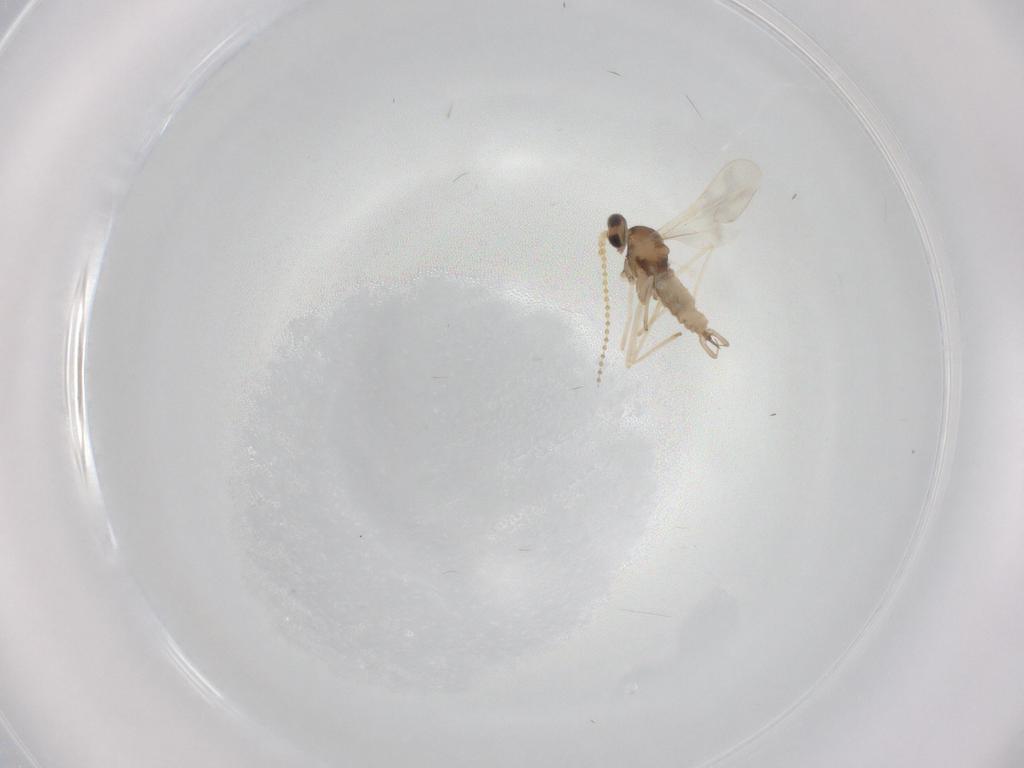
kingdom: Animalia
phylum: Arthropoda
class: Insecta
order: Diptera
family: Cecidomyiidae
